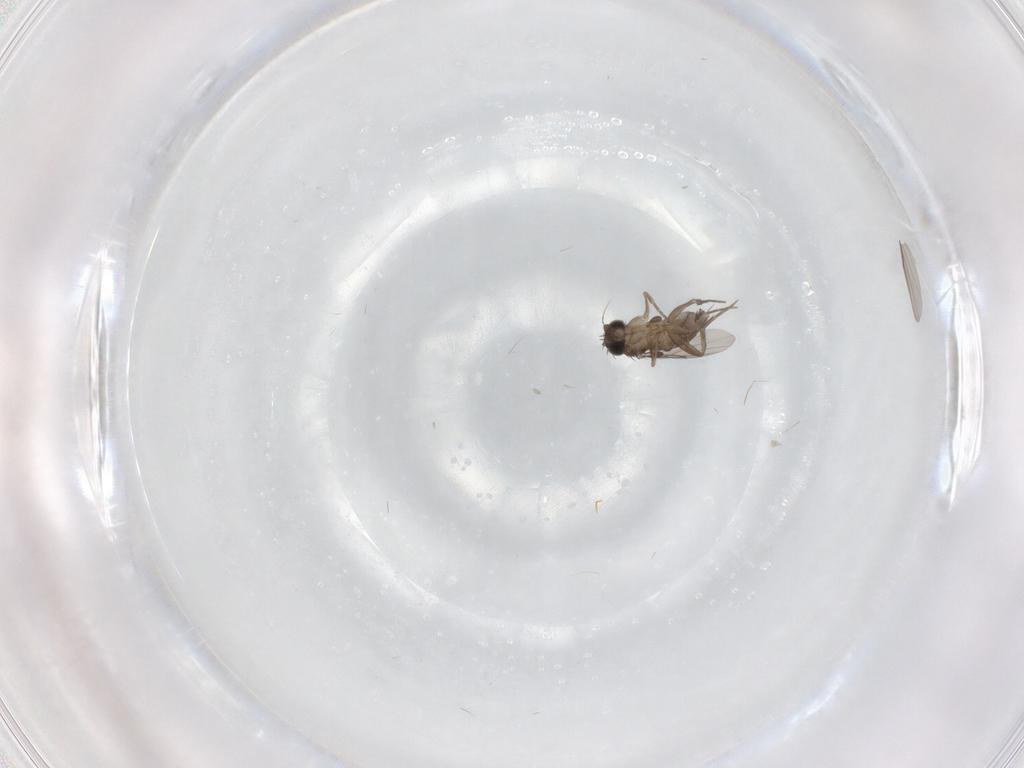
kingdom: Animalia
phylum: Arthropoda
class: Insecta
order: Diptera
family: Phoridae
